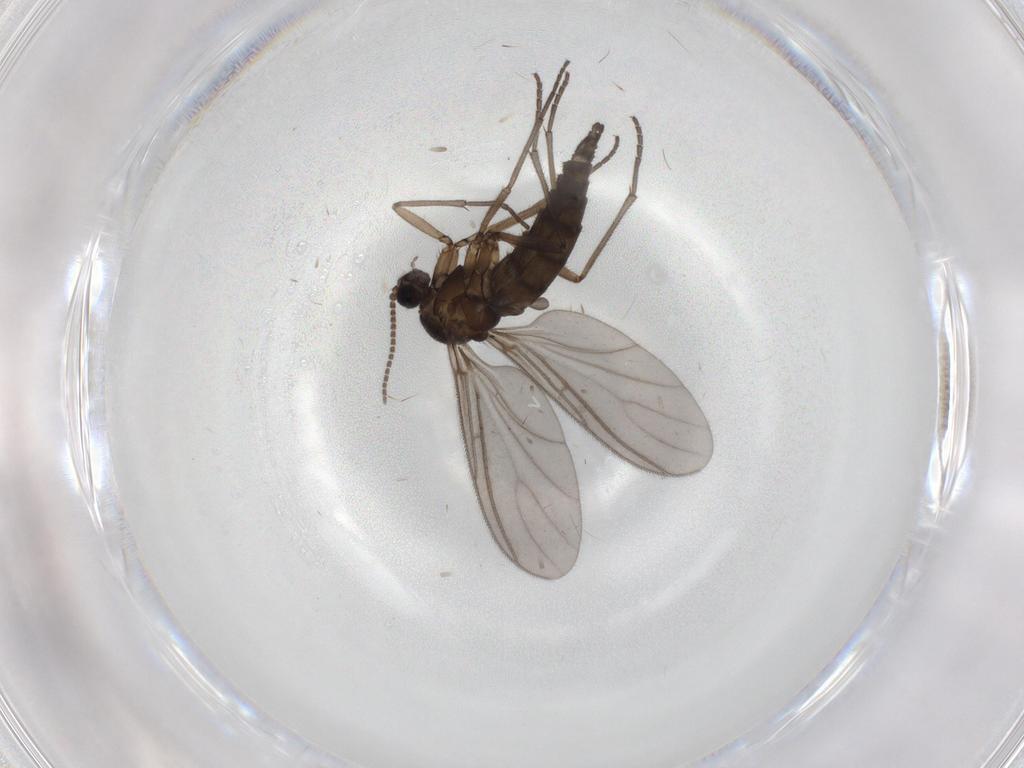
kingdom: Animalia
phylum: Arthropoda
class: Insecta
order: Diptera
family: Sciaridae
